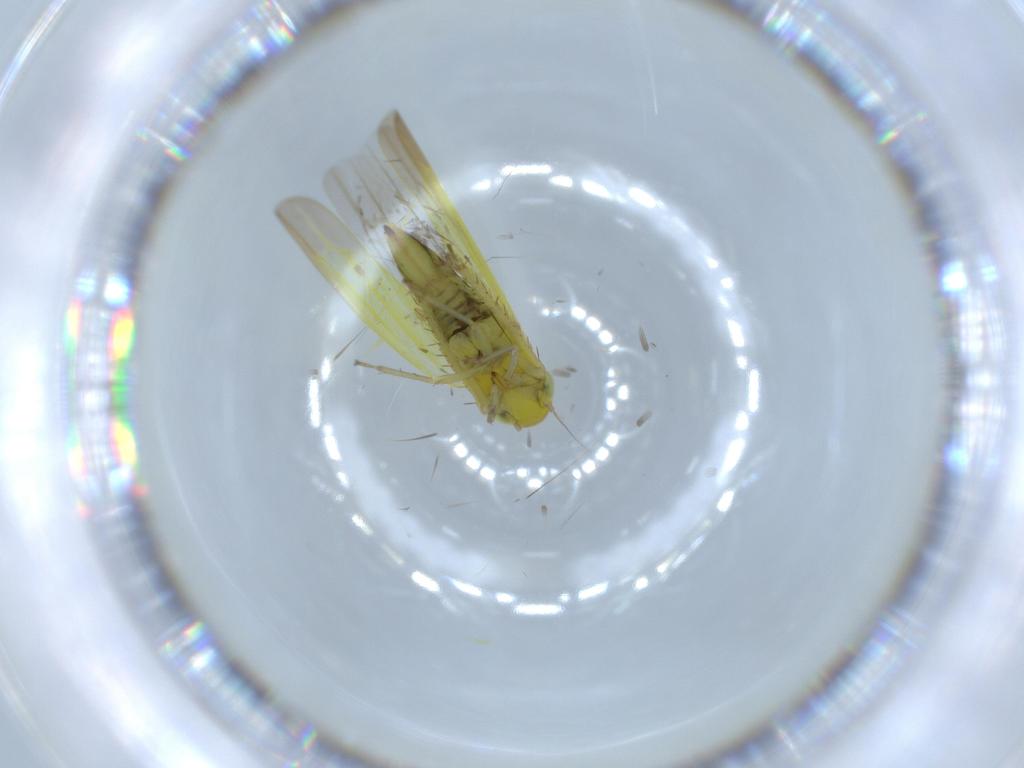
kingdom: Animalia
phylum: Arthropoda
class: Insecta
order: Hemiptera
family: Cicadellidae
